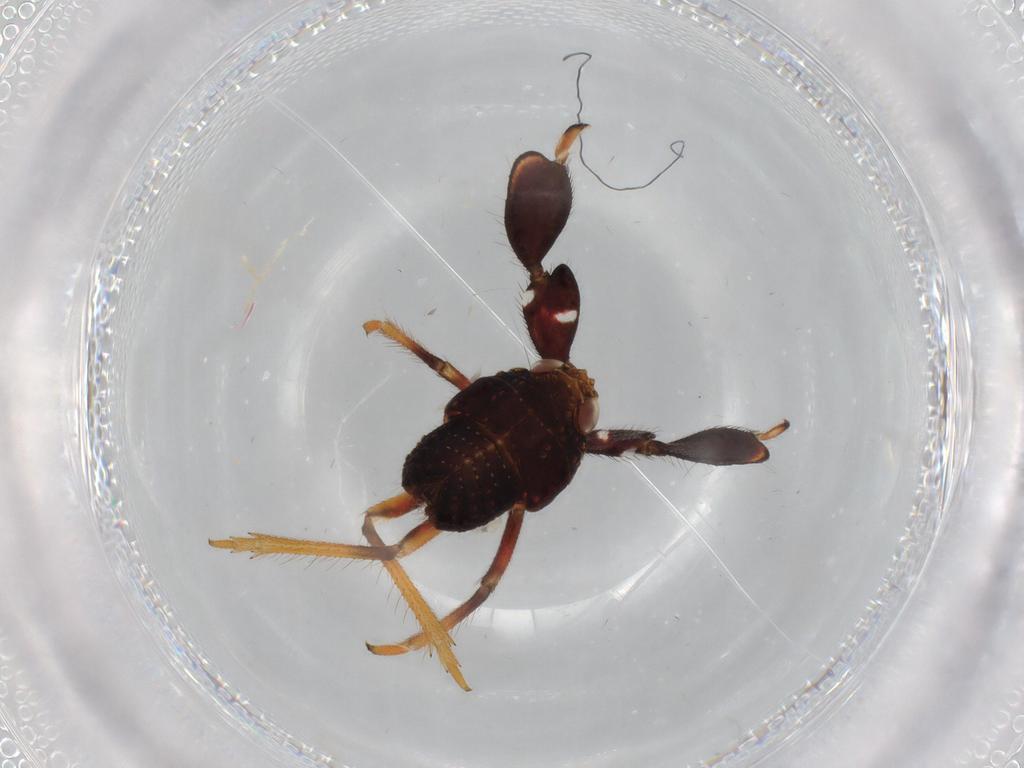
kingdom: Animalia
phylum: Arthropoda
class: Insecta
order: Hemiptera
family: Caliscelidae
